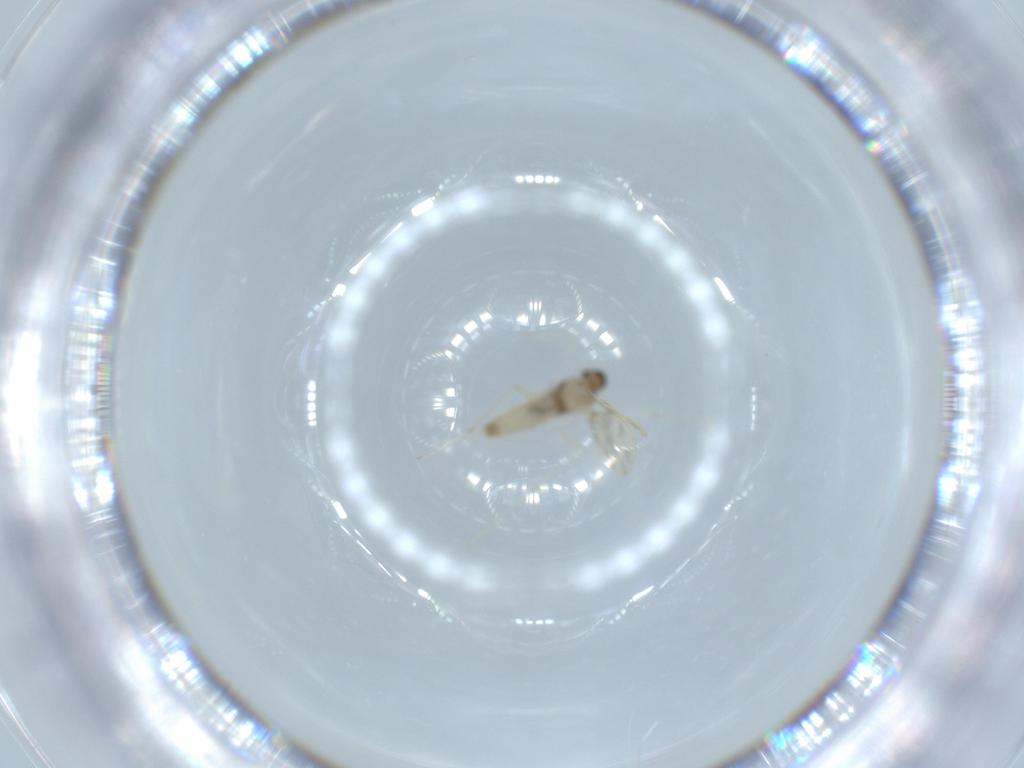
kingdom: Animalia
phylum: Arthropoda
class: Insecta
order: Diptera
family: Cecidomyiidae
